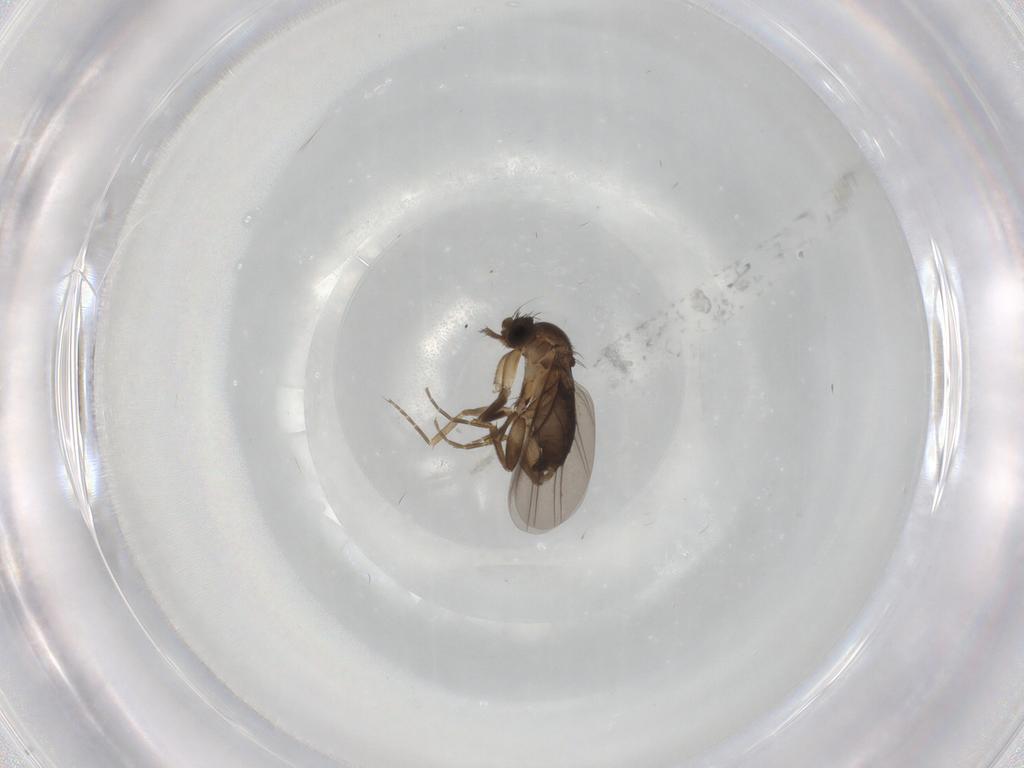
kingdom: Animalia
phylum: Arthropoda
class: Insecta
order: Diptera
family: Phoridae
